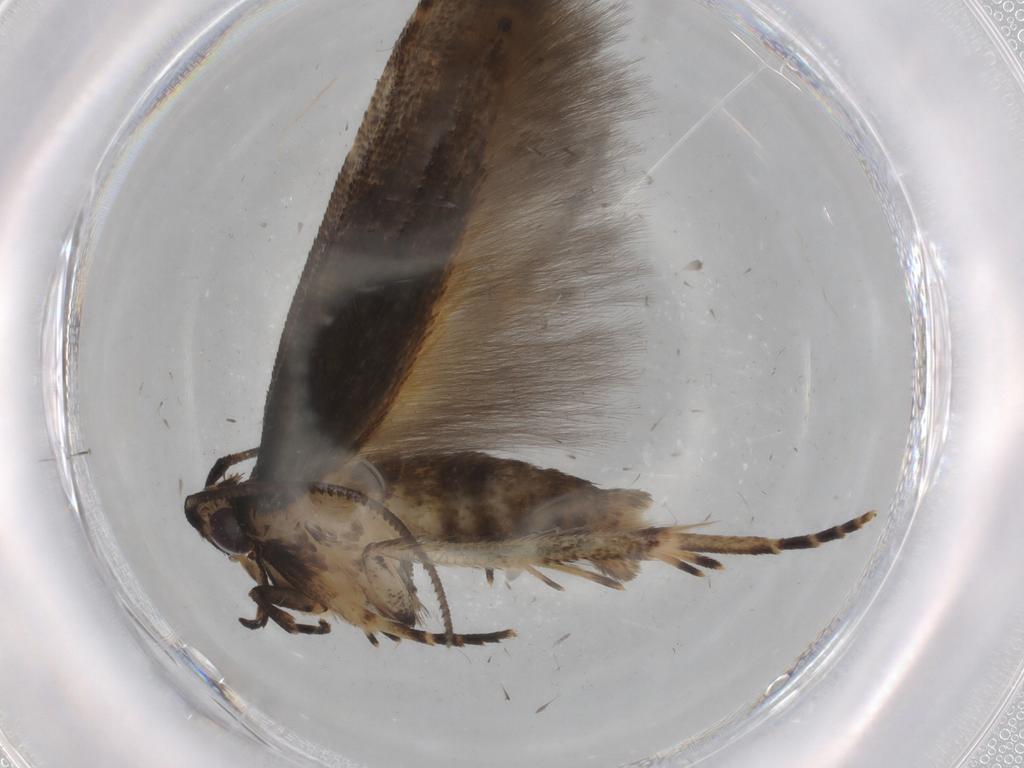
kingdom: Animalia
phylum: Arthropoda
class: Insecta
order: Lepidoptera
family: Cosmopterigidae
